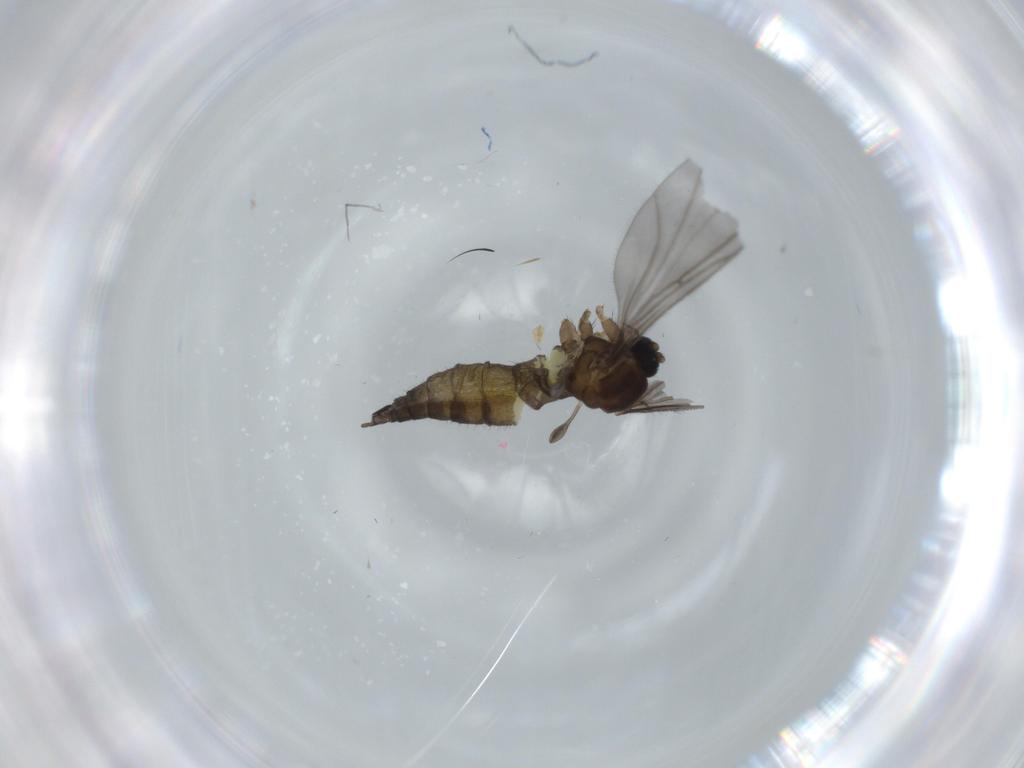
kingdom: Animalia
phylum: Arthropoda
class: Insecta
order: Diptera
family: Sciaridae
